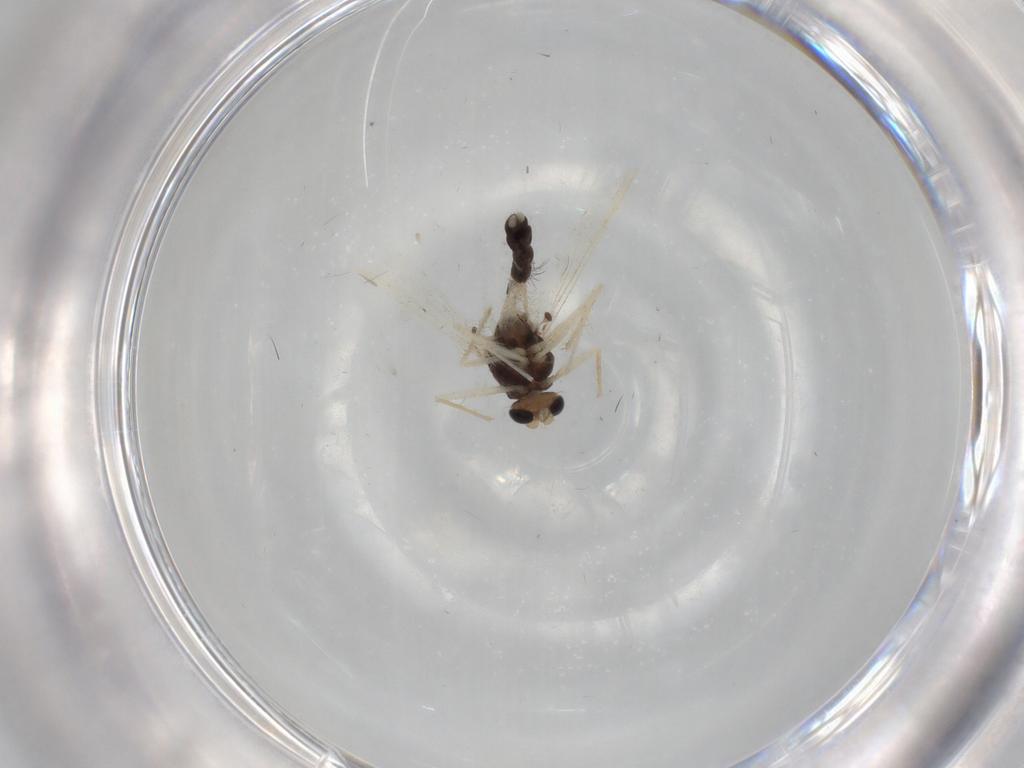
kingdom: Animalia
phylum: Arthropoda
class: Insecta
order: Diptera
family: Chironomidae
